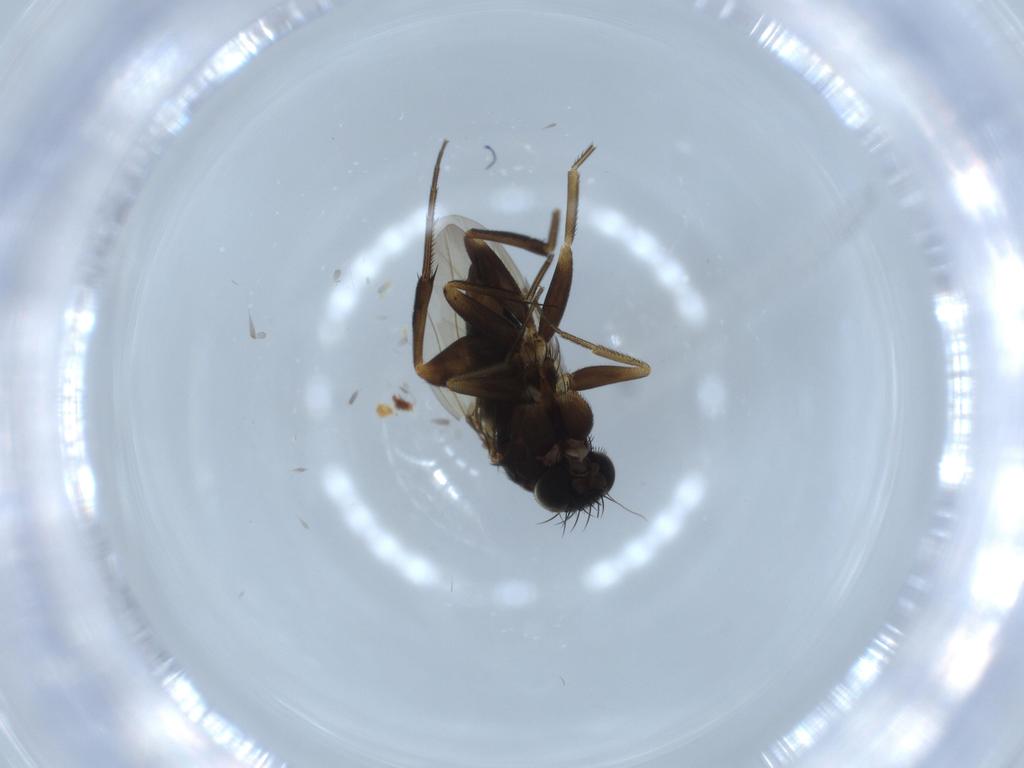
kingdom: Animalia
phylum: Arthropoda
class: Insecta
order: Diptera
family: Phoridae
